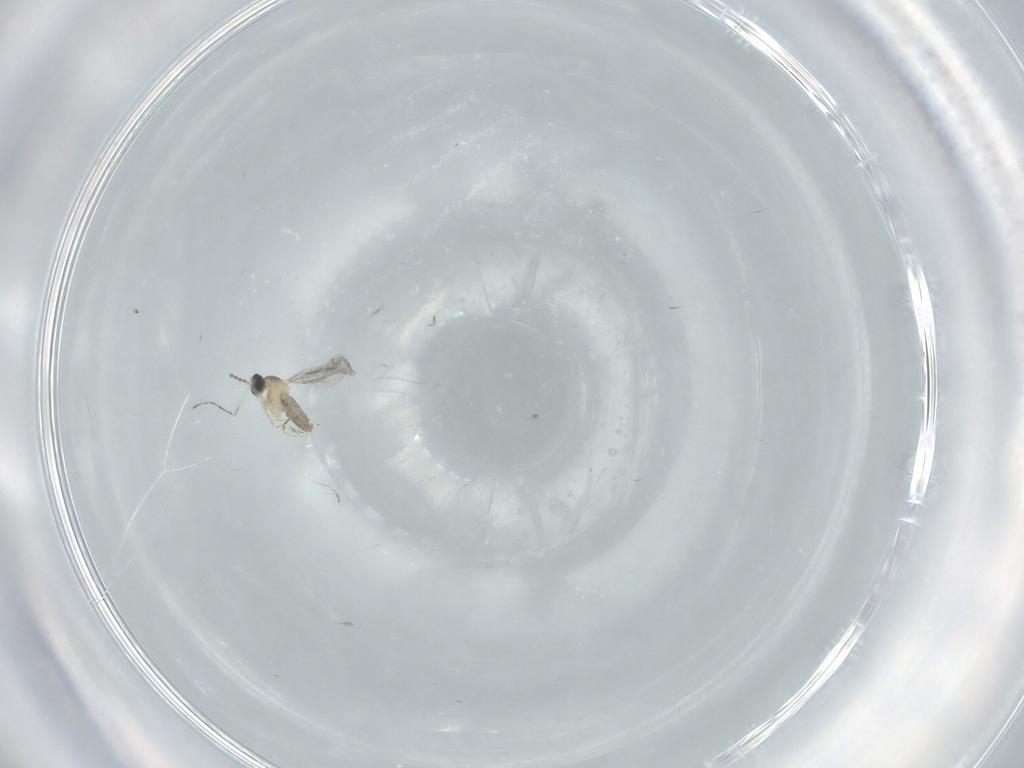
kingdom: Animalia
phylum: Arthropoda
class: Insecta
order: Diptera
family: Cecidomyiidae
